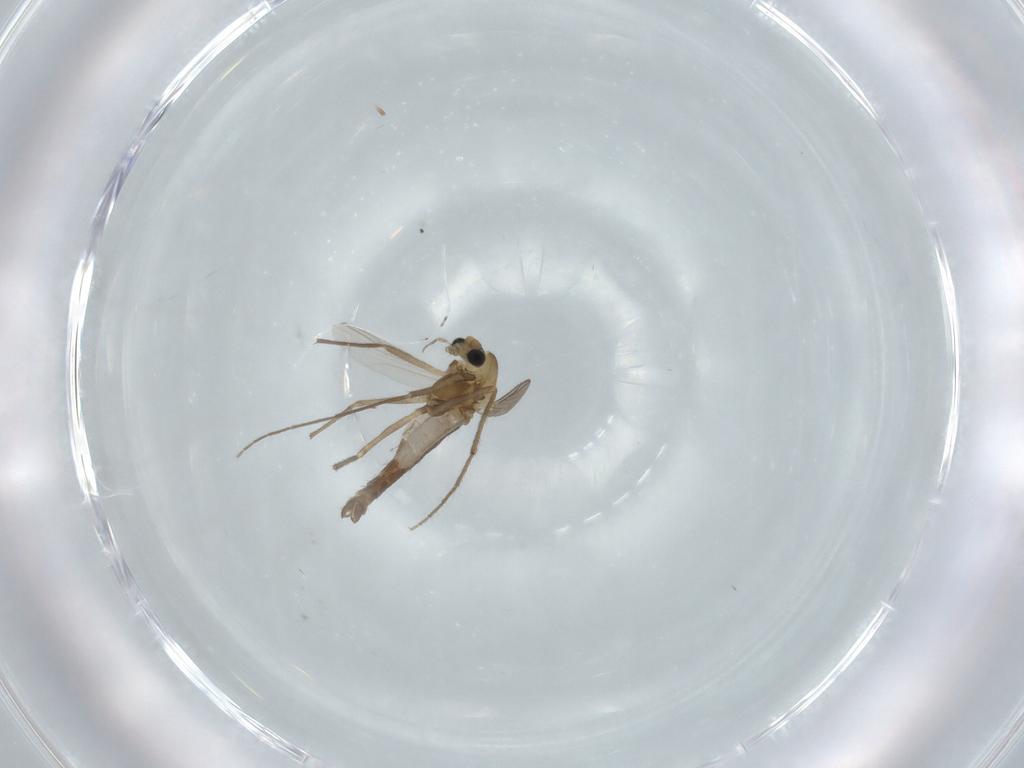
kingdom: Animalia
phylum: Arthropoda
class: Insecta
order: Diptera
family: Chironomidae
